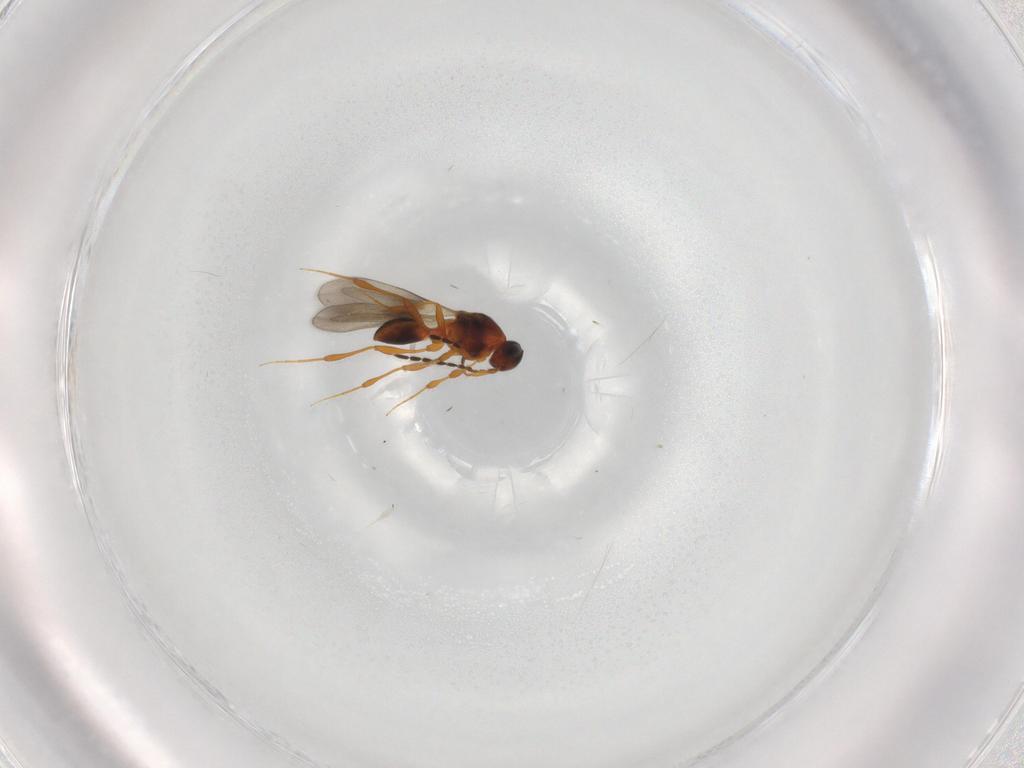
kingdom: Animalia
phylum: Arthropoda
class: Insecta
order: Hymenoptera
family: Platygastridae
